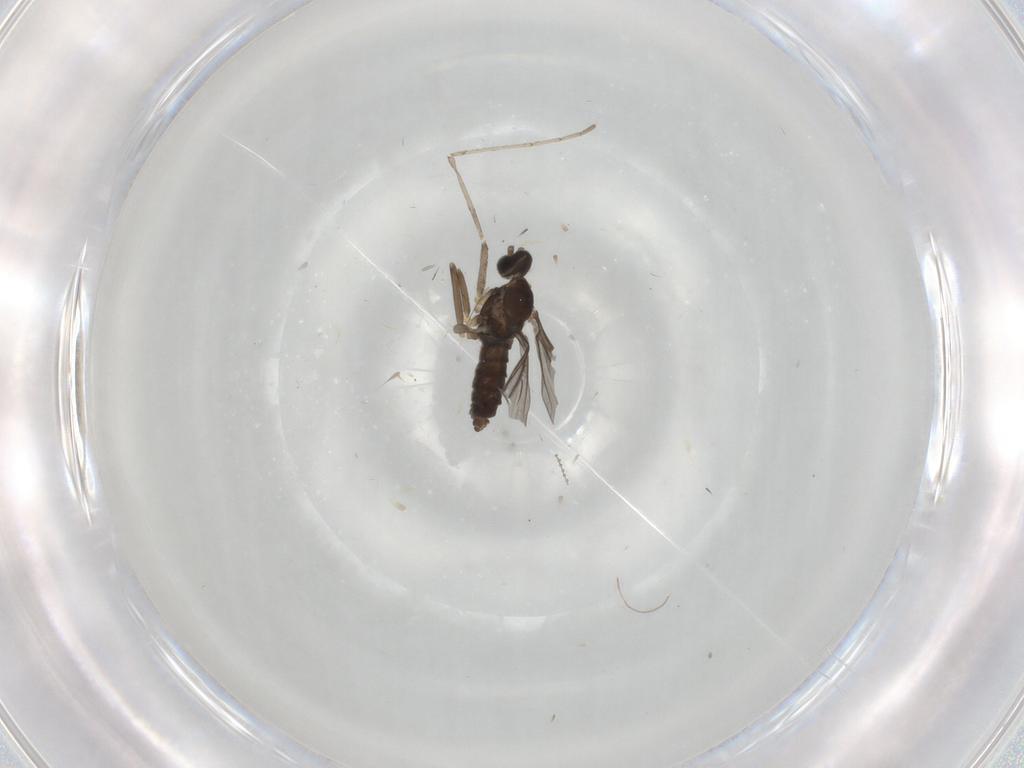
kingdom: Animalia
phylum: Arthropoda
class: Insecta
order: Diptera
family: Cecidomyiidae
